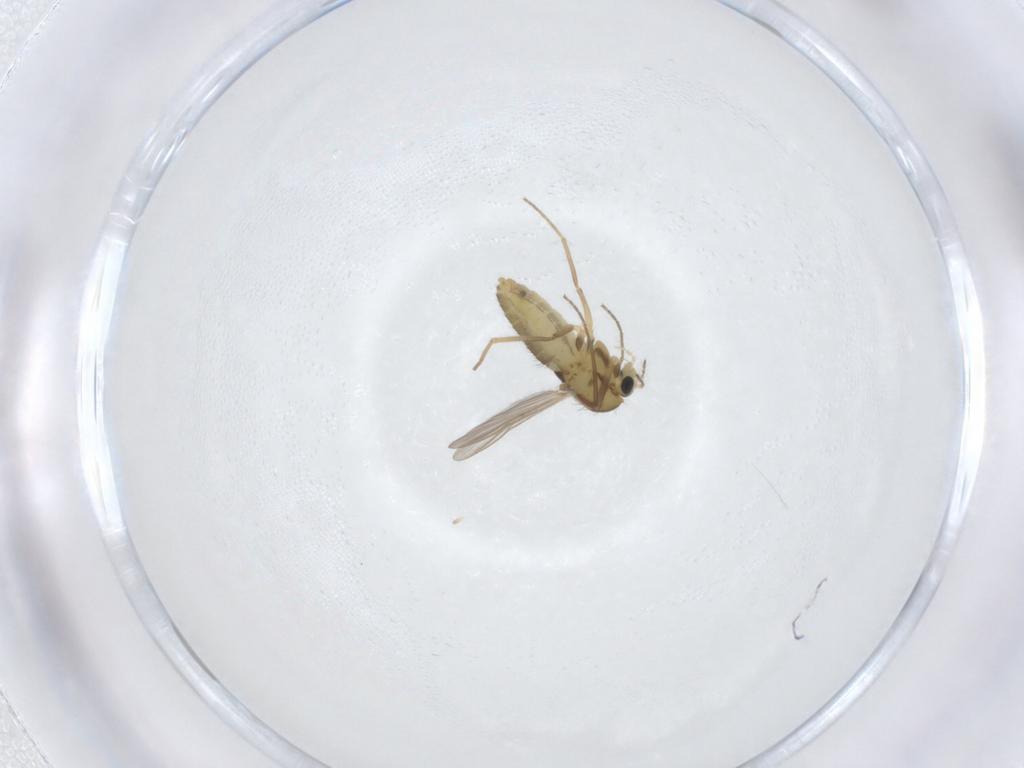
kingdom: Animalia
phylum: Arthropoda
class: Insecta
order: Diptera
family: Chironomidae
